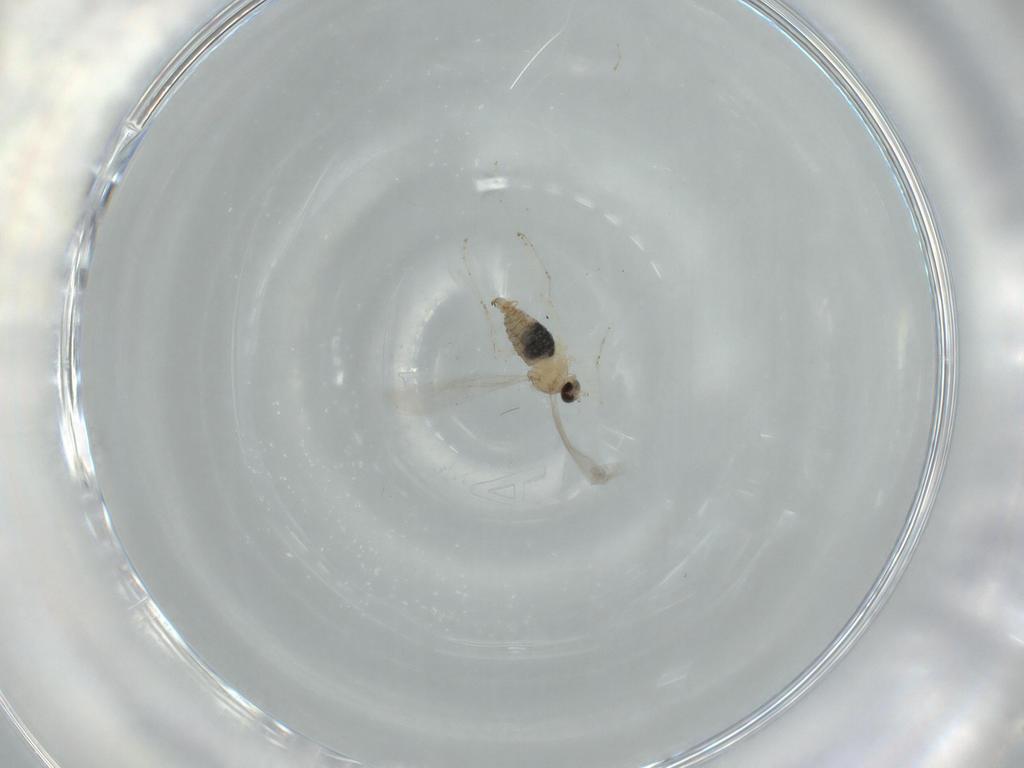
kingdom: Animalia
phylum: Arthropoda
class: Insecta
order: Diptera
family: Cecidomyiidae
